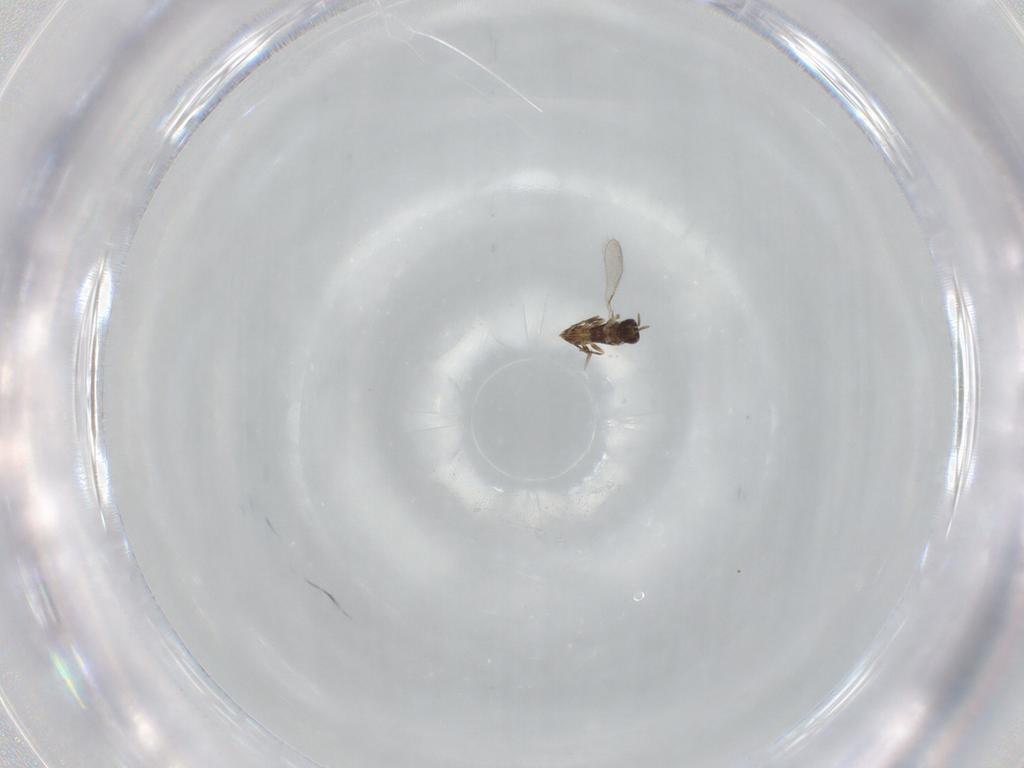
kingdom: Animalia
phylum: Arthropoda
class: Insecta
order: Hymenoptera
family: Mymaridae
